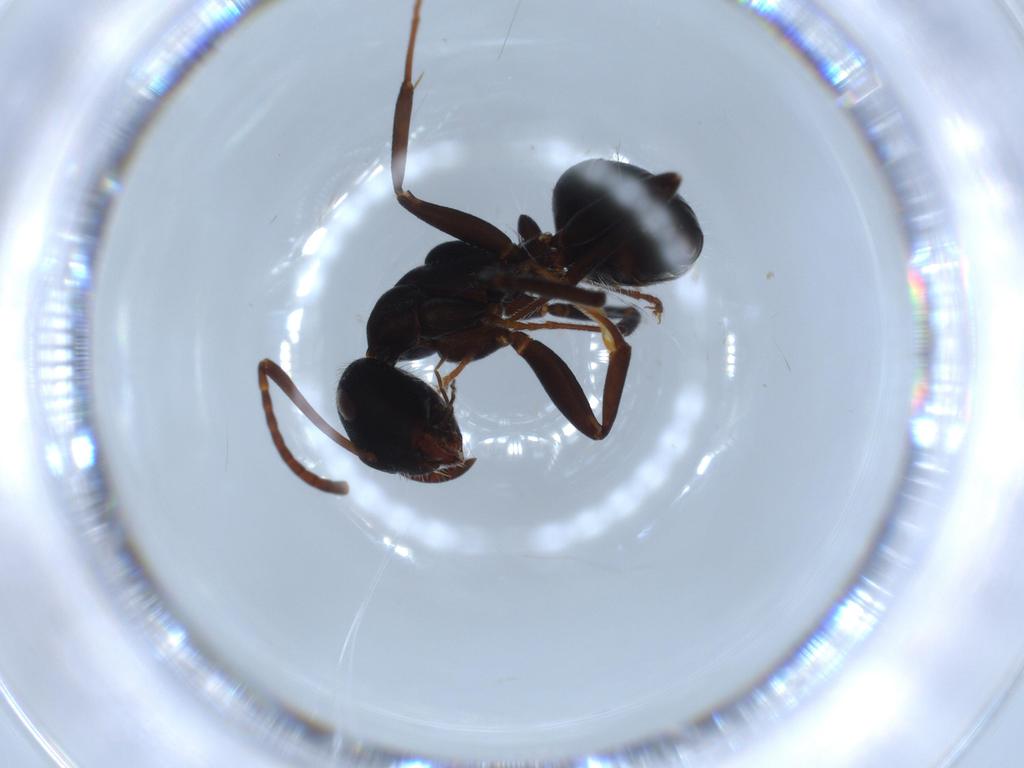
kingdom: Animalia
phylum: Arthropoda
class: Insecta
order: Hymenoptera
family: Formicidae
